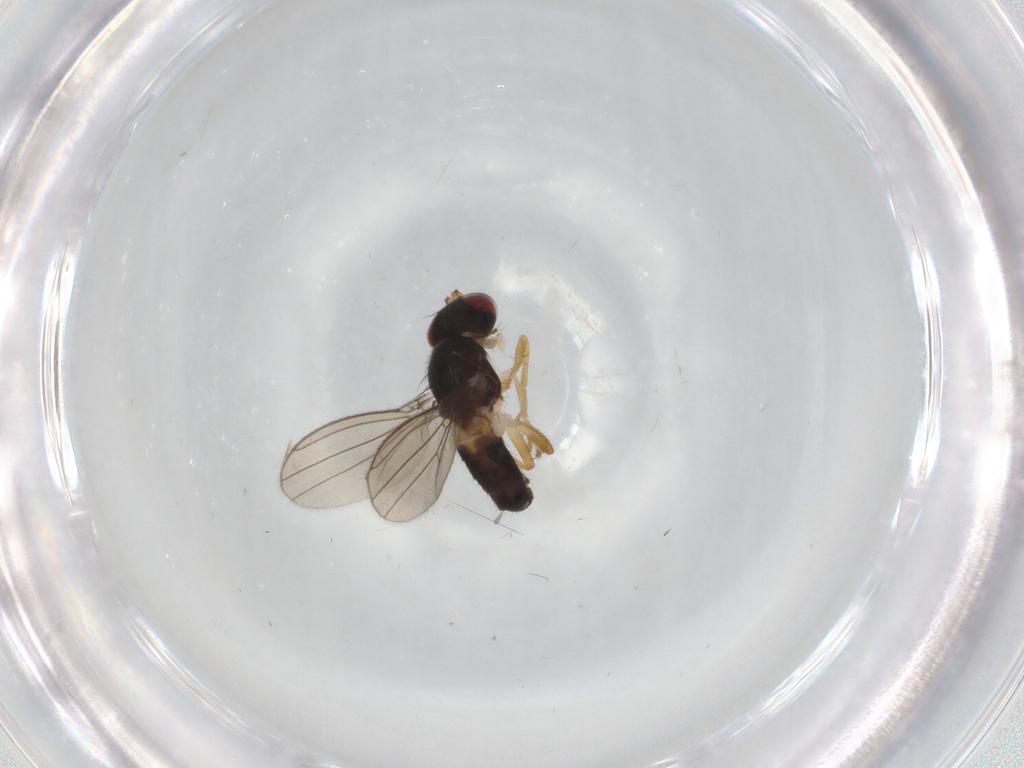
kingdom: Animalia
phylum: Arthropoda
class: Insecta
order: Diptera
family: Anthomyzidae
